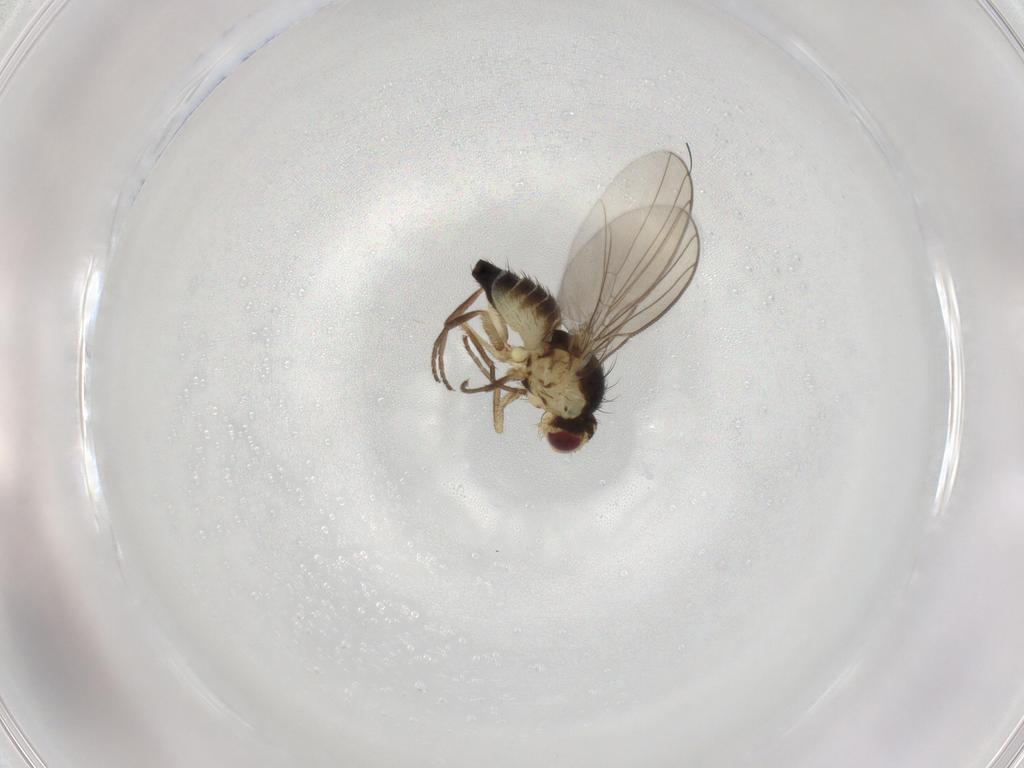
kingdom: Animalia
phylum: Arthropoda
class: Insecta
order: Diptera
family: Agromyzidae
